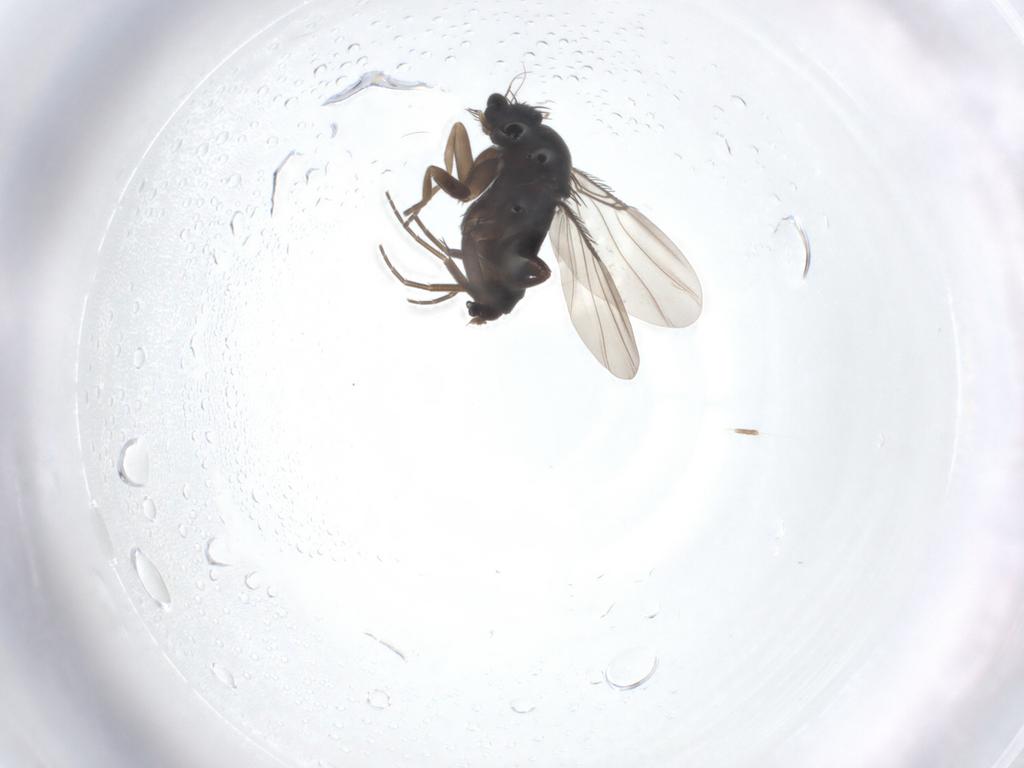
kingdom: Animalia
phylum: Arthropoda
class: Insecta
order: Diptera
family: Phoridae
